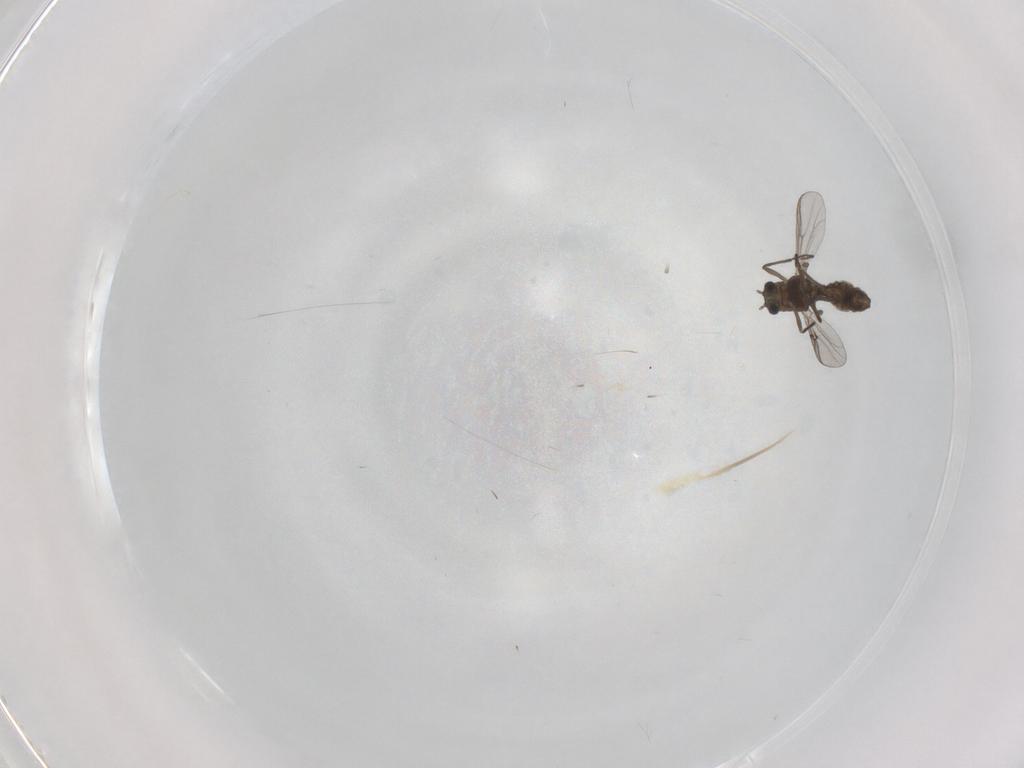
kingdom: Animalia
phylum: Arthropoda
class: Insecta
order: Diptera
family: Chironomidae
